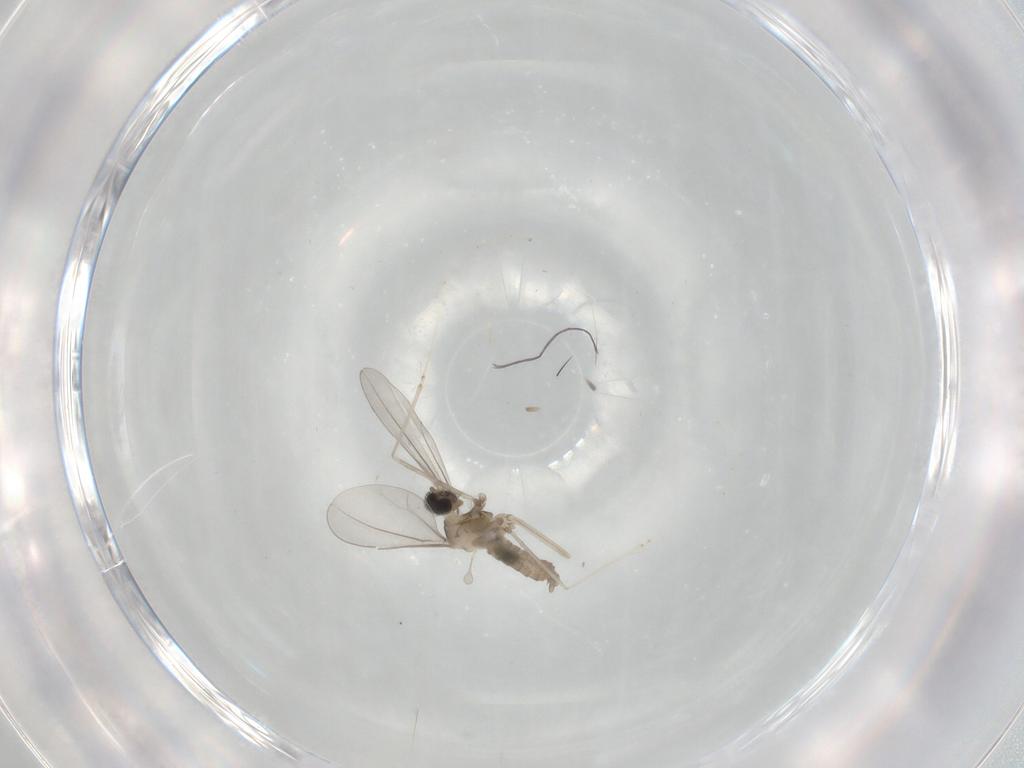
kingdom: Animalia
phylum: Arthropoda
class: Insecta
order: Diptera
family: Cecidomyiidae
